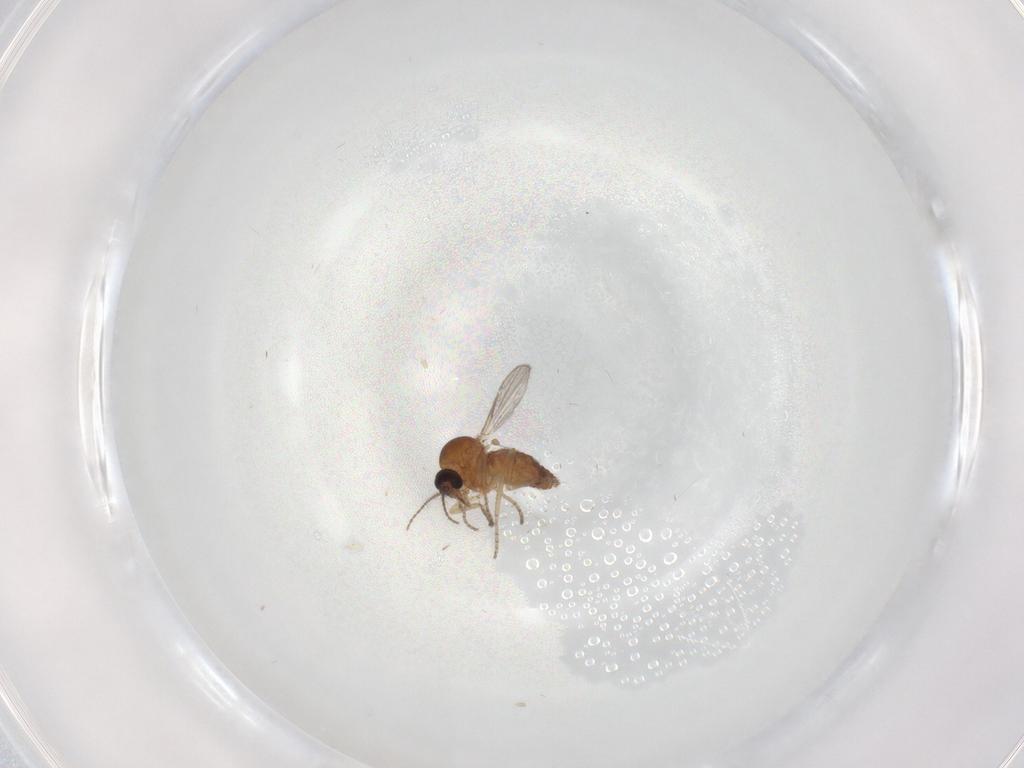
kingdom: Animalia
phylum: Arthropoda
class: Insecta
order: Diptera
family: Ceratopogonidae
